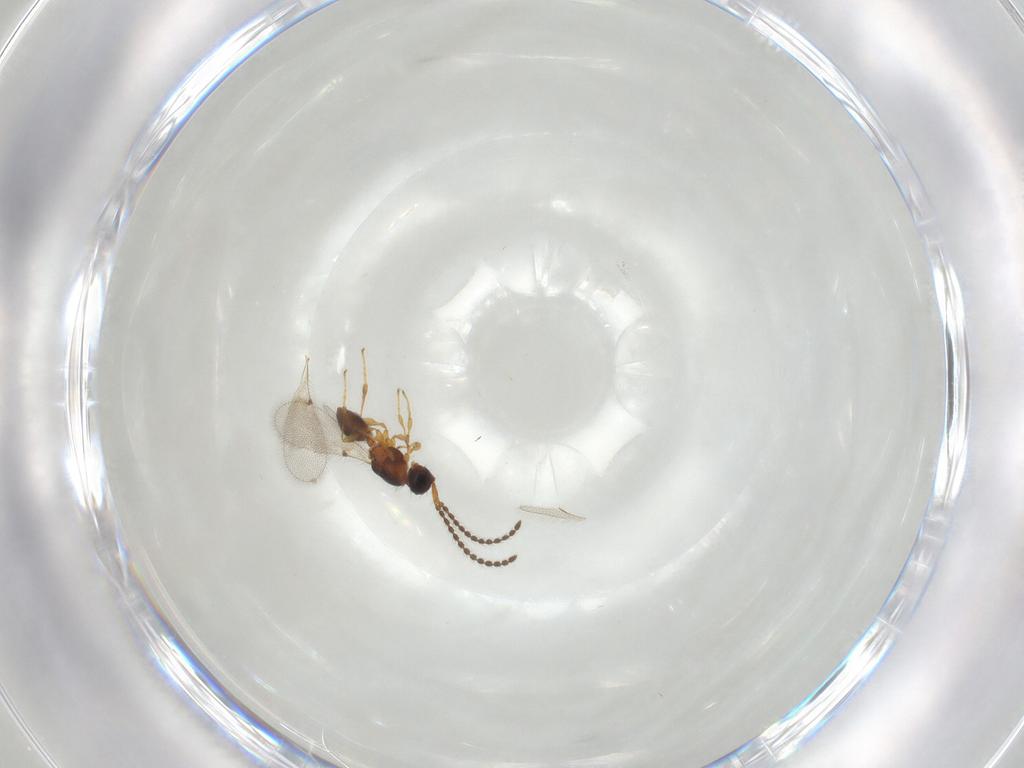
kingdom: Animalia
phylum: Arthropoda
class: Insecta
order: Hymenoptera
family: Diapriidae
